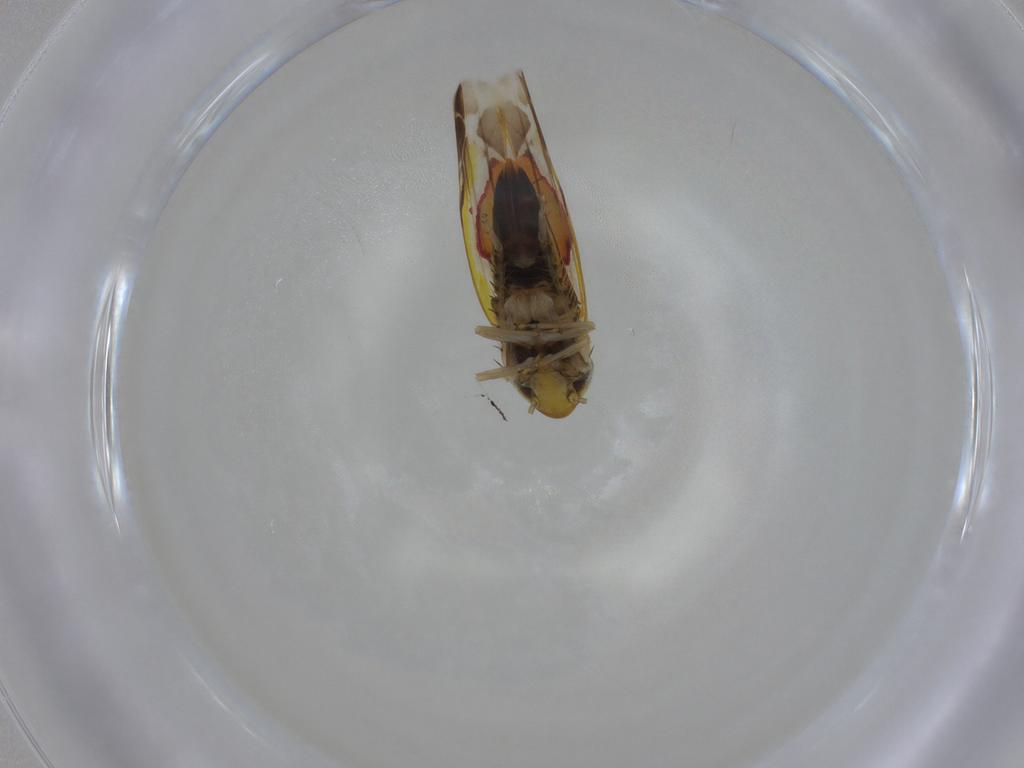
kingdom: Animalia
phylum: Arthropoda
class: Insecta
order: Hemiptera
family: Cicadellidae
